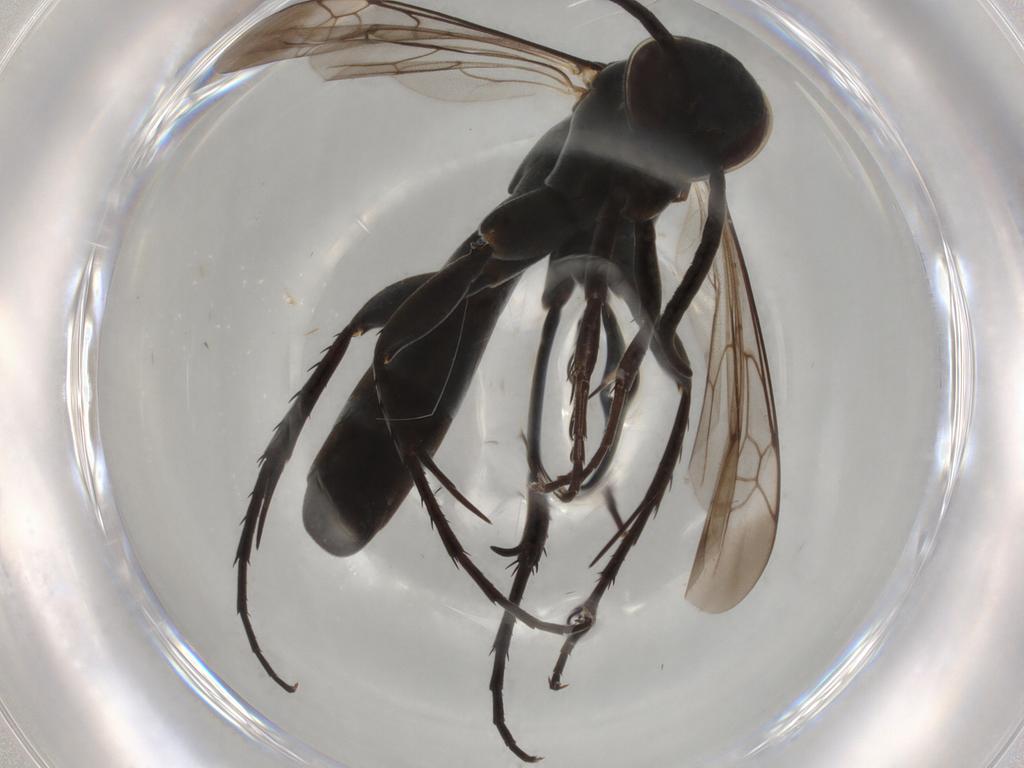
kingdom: Animalia
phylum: Arthropoda
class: Insecta
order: Hymenoptera
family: Pompilidae
